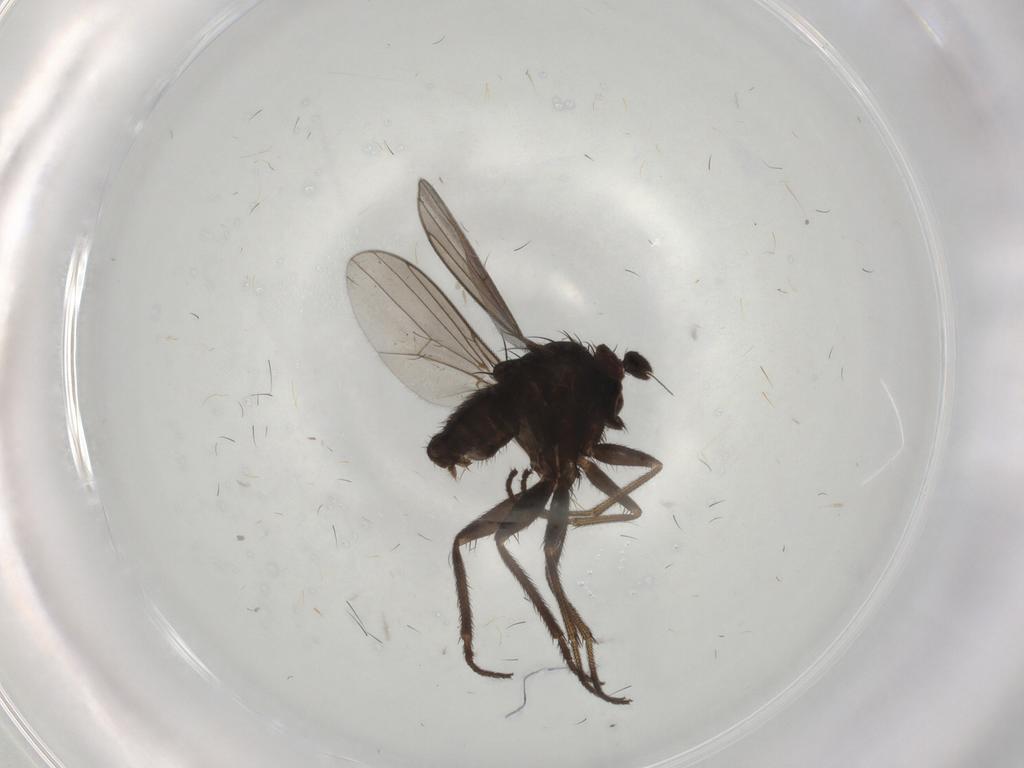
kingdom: Animalia
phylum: Arthropoda
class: Insecta
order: Diptera
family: Dolichopodidae
